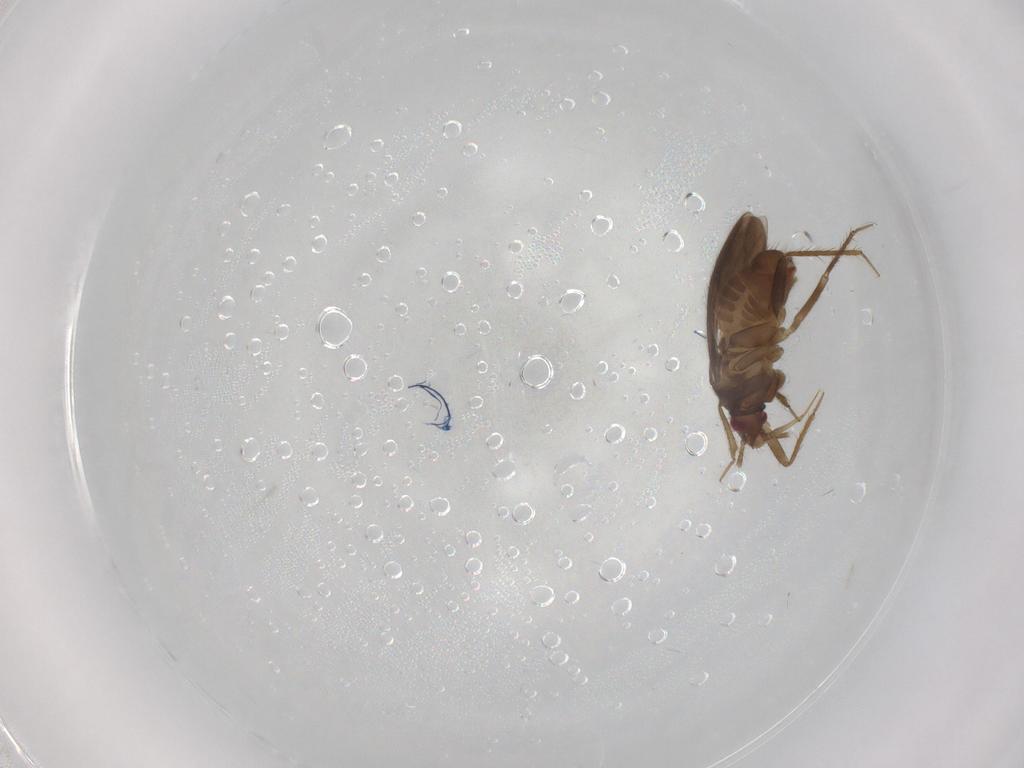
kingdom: Animalia
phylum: Arthropoda
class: Insecta
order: Hemiptera
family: Ceratocombidae
